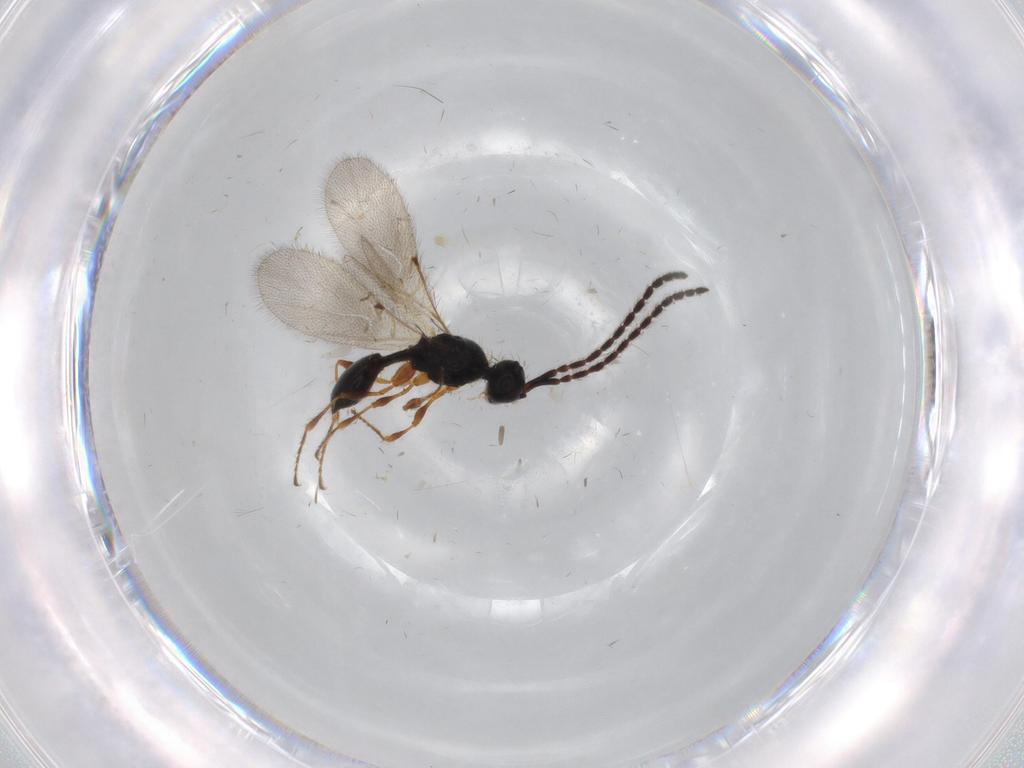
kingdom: Animalia
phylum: Arthropoda
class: Insecta
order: Hymenoptera
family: Diapriidae
